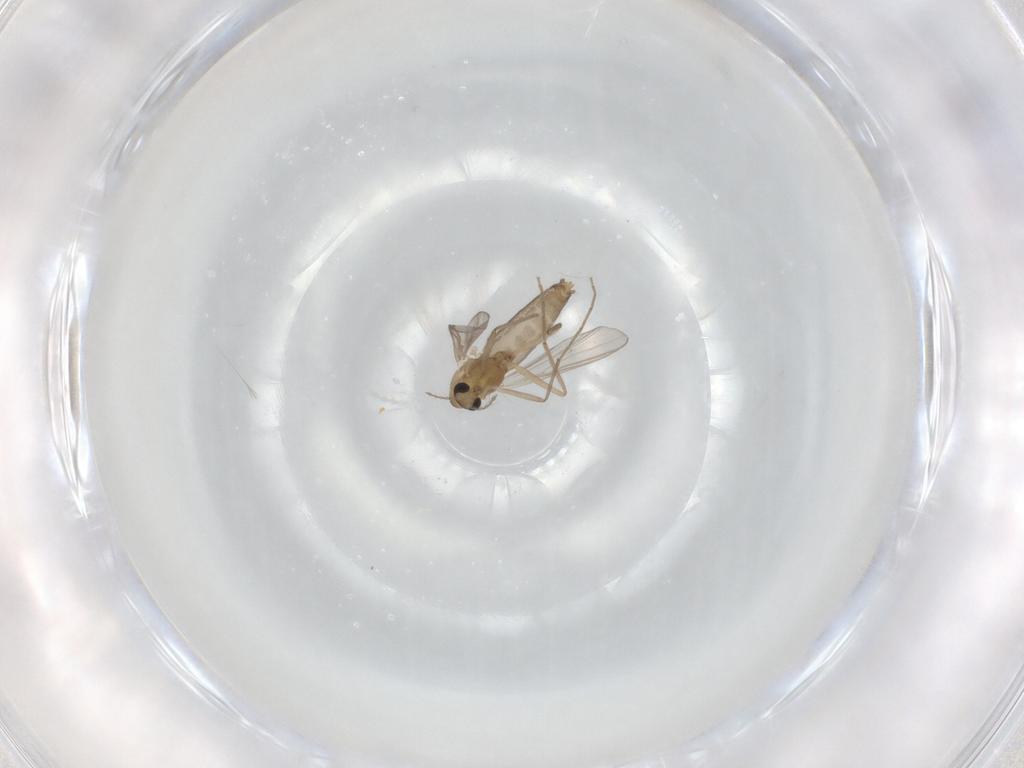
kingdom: Animalia
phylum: Arthropoda
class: Insecta
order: Diptera
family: Chironomidae
